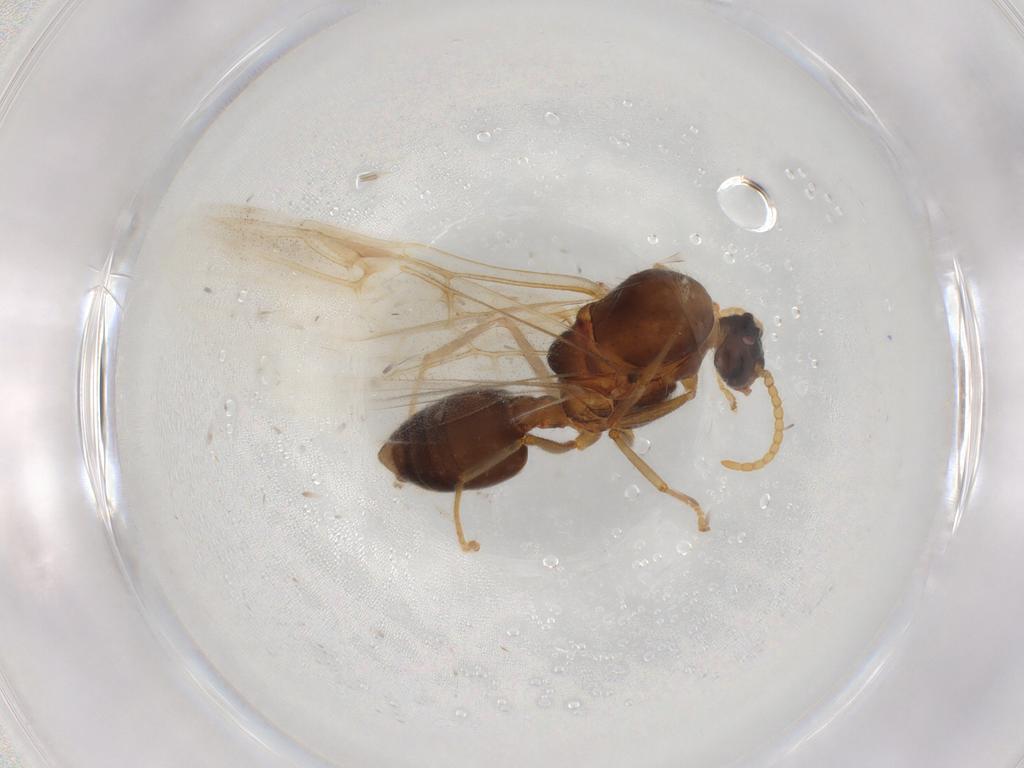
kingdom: Animalia
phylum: Arthropoda
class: Insecta
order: Hymenoptera
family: Formicidae
